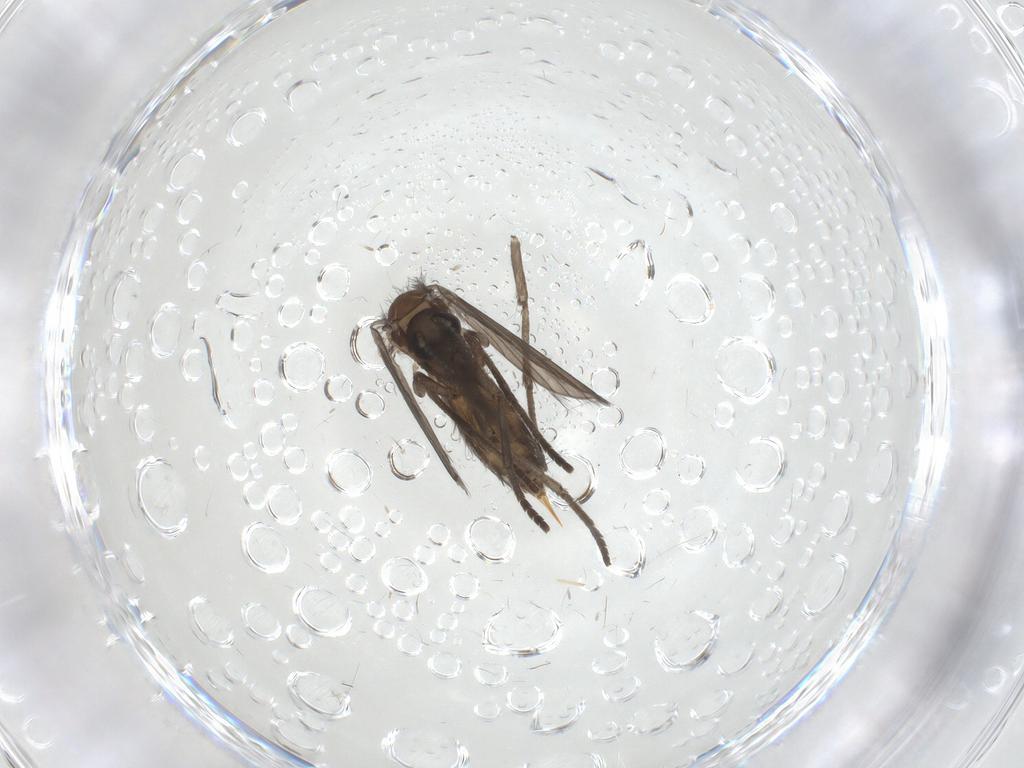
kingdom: Animalia
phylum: Arthropoda
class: Insecta
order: Diptera
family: Psychodidae
